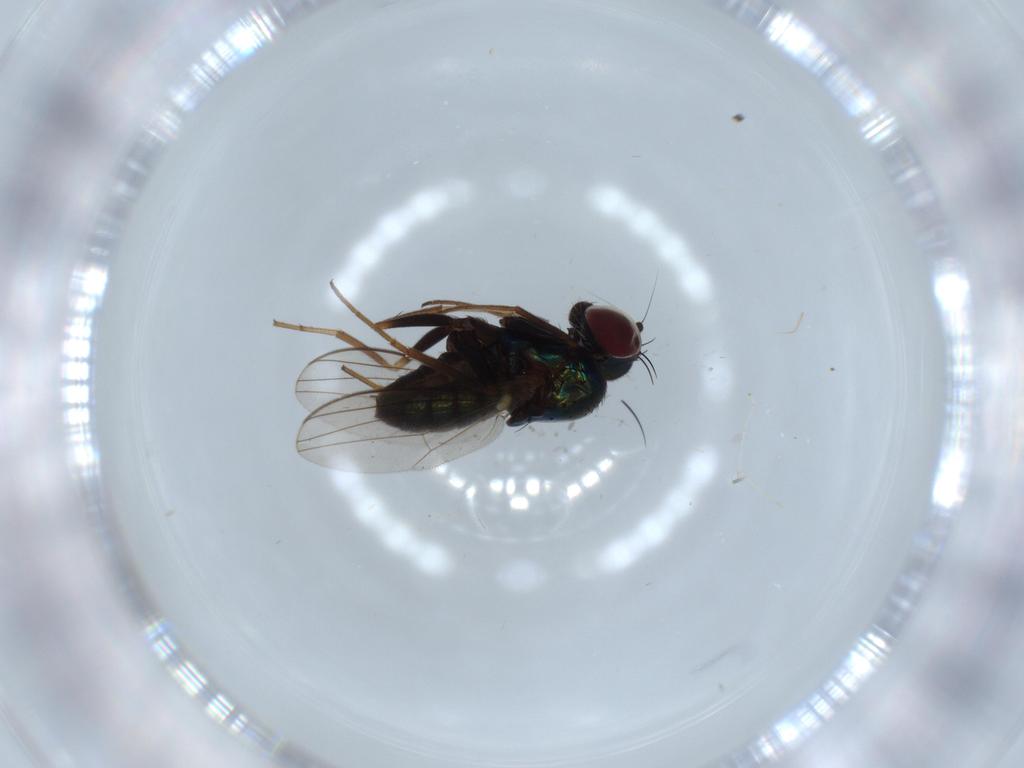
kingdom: Animalia
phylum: Arthropoda
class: Insecta
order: Diptera
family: Dolichopodidae
